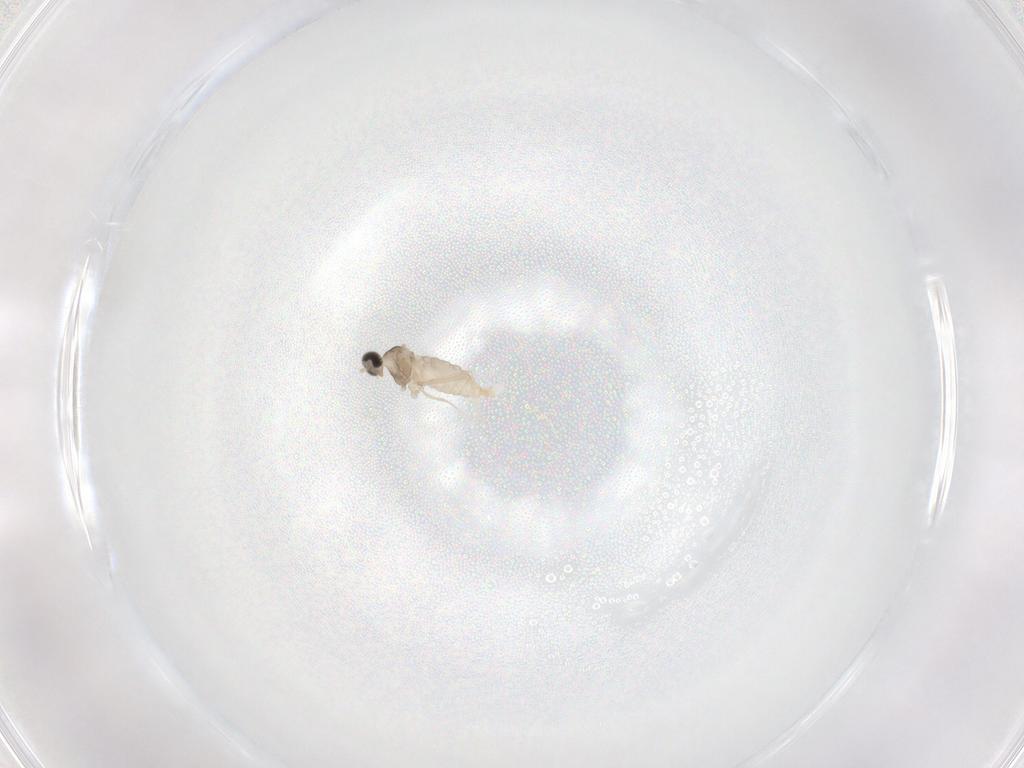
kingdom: Animalia
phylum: Arthropoda
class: Insecta
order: Diptera
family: Cecidomyiidae
